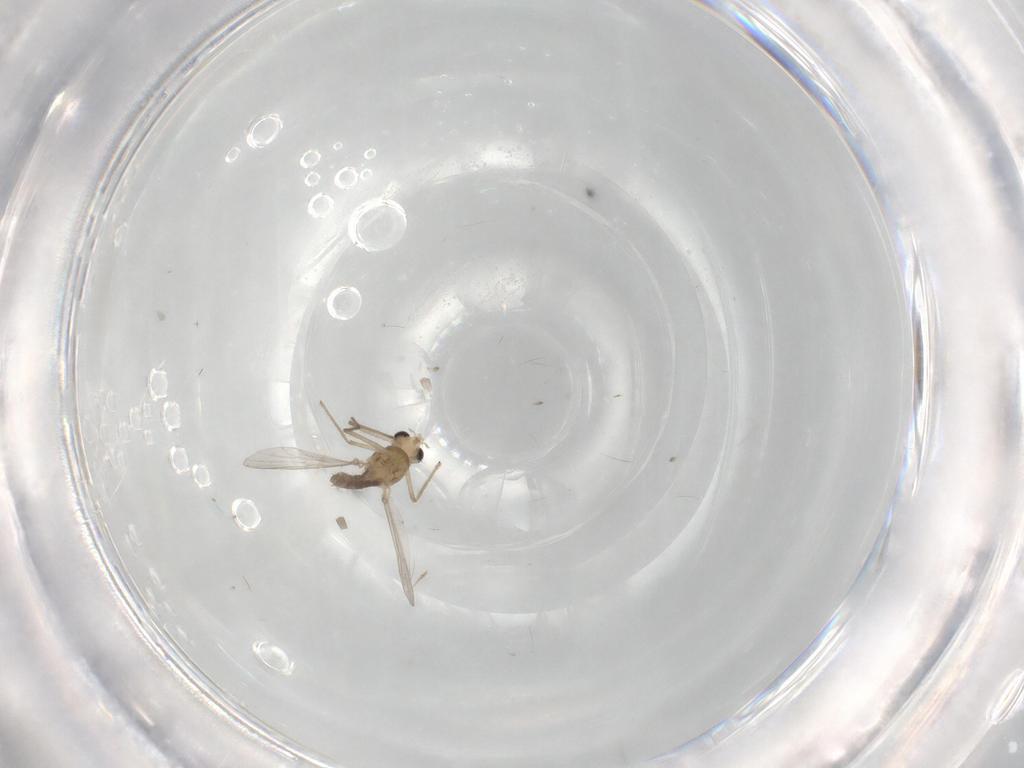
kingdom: Animalia
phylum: Arthropoda
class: Insecta
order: Diptera
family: Chironomidae
